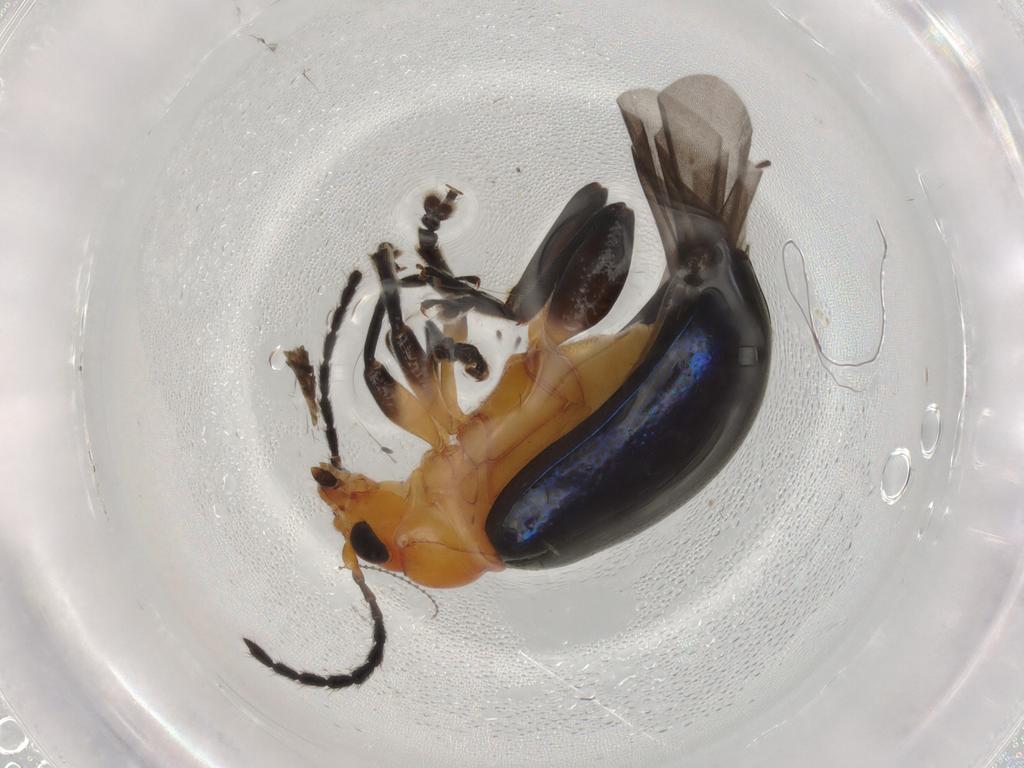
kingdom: Animalia
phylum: Arthropoda
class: Insecta
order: Coleoptera
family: Chrysomelidae
